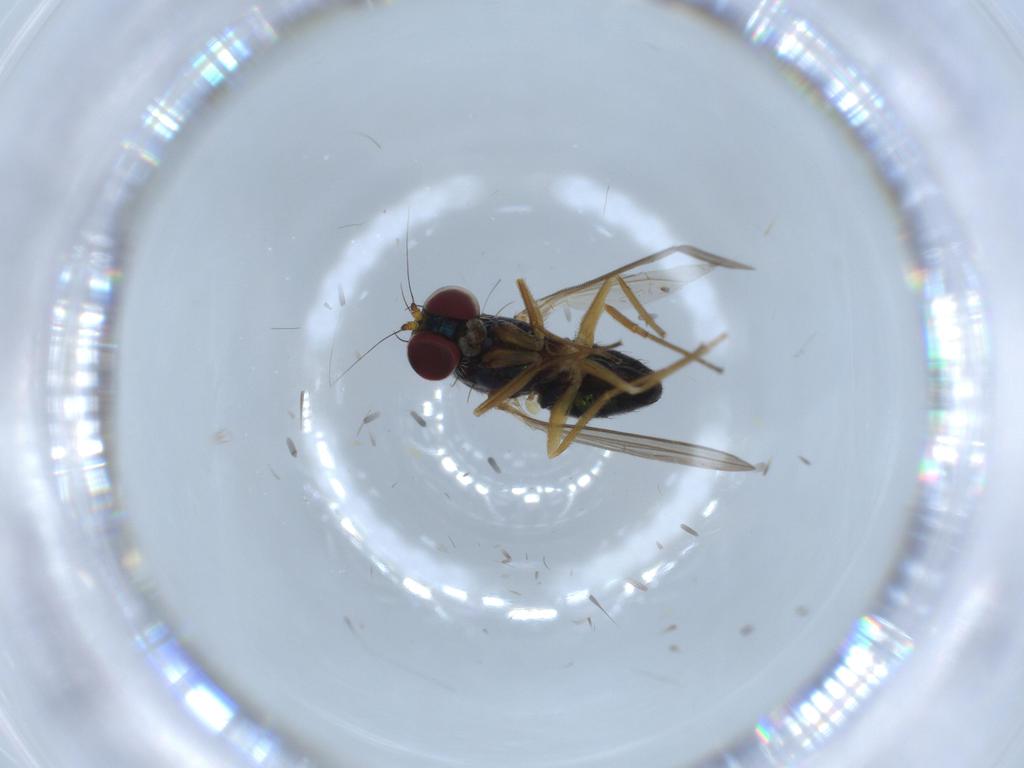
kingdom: Animalia
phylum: Arthropoda
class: Insecta
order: Diptera
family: Dolichopodidae
